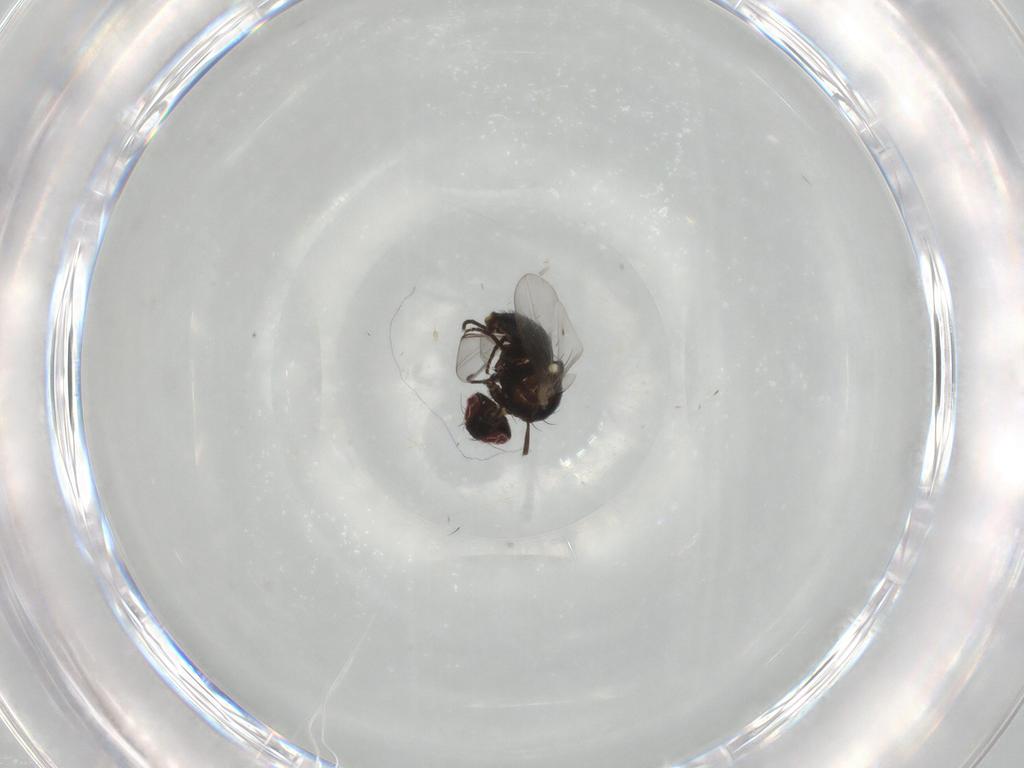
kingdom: Animalia
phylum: Arthropoda
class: Insecta
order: Diptera
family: Agromyzidae
